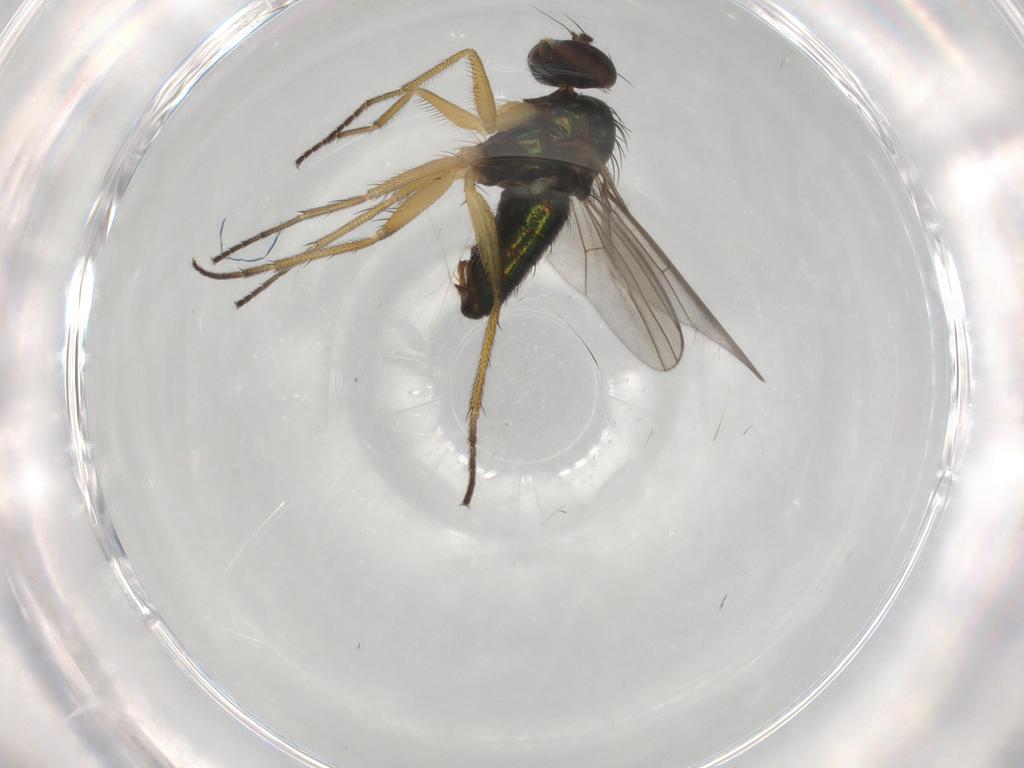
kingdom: Animalia
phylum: Arthropoda
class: Insecta
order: Diptera
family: Dolichopodidae
